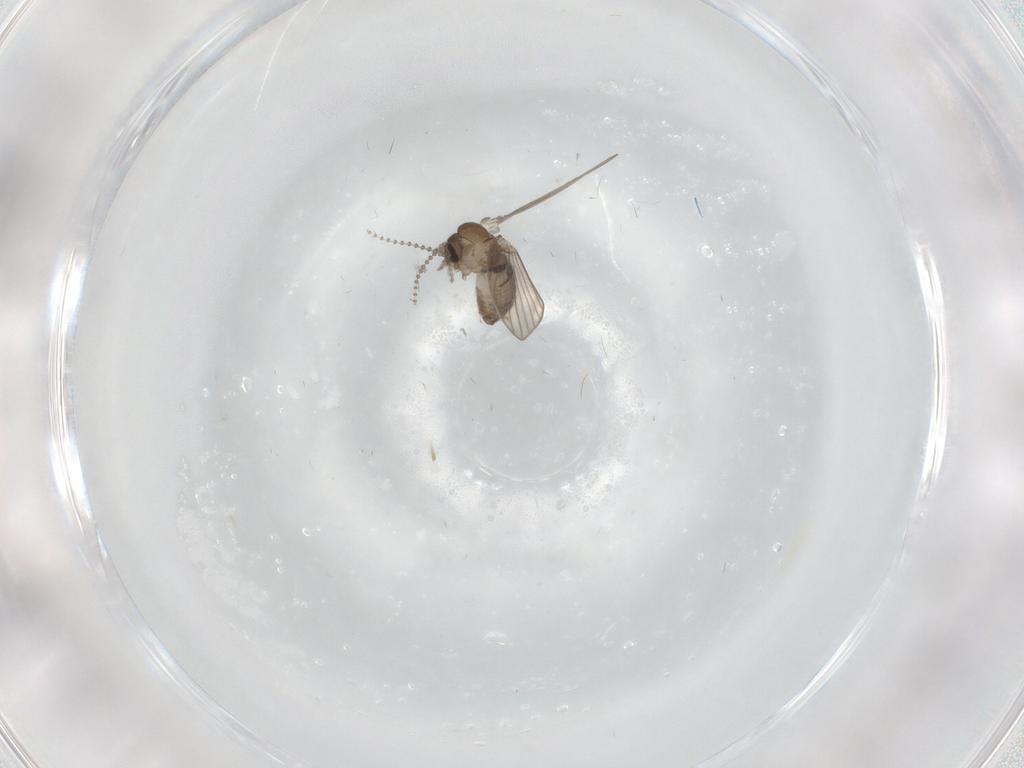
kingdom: Animalia
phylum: Arthropoda
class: Insecta
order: Diptera
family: Psychodidae
